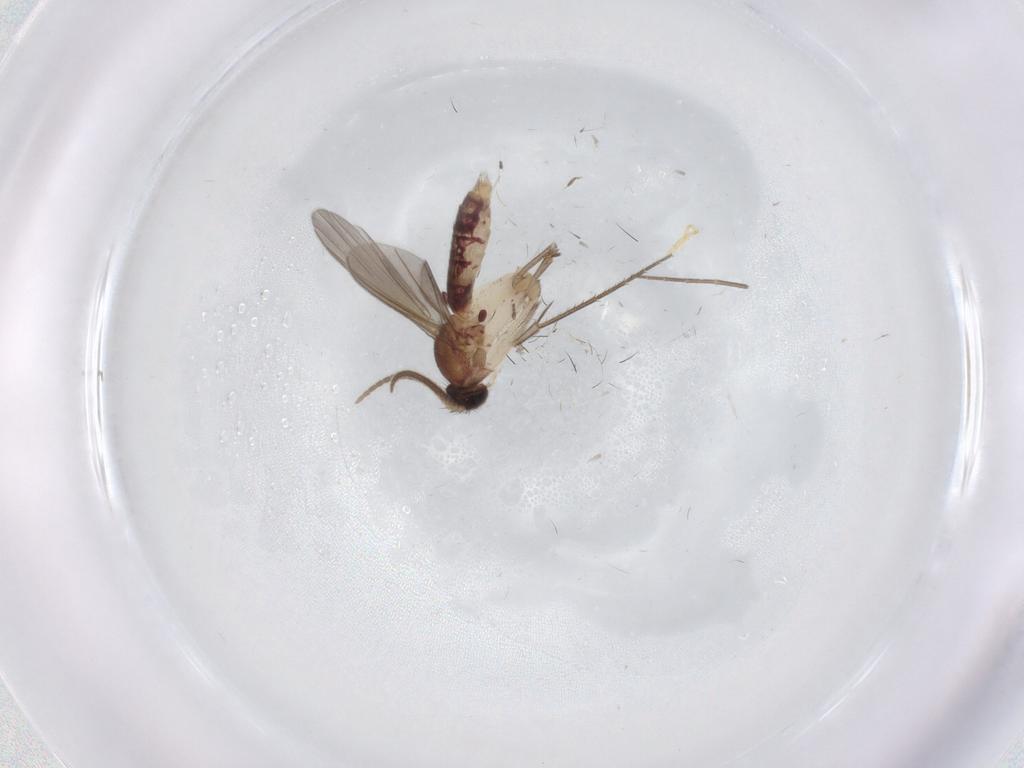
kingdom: Animalia
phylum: Arthropoda
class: Insecta
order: Diptera
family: Mycetophilidae
